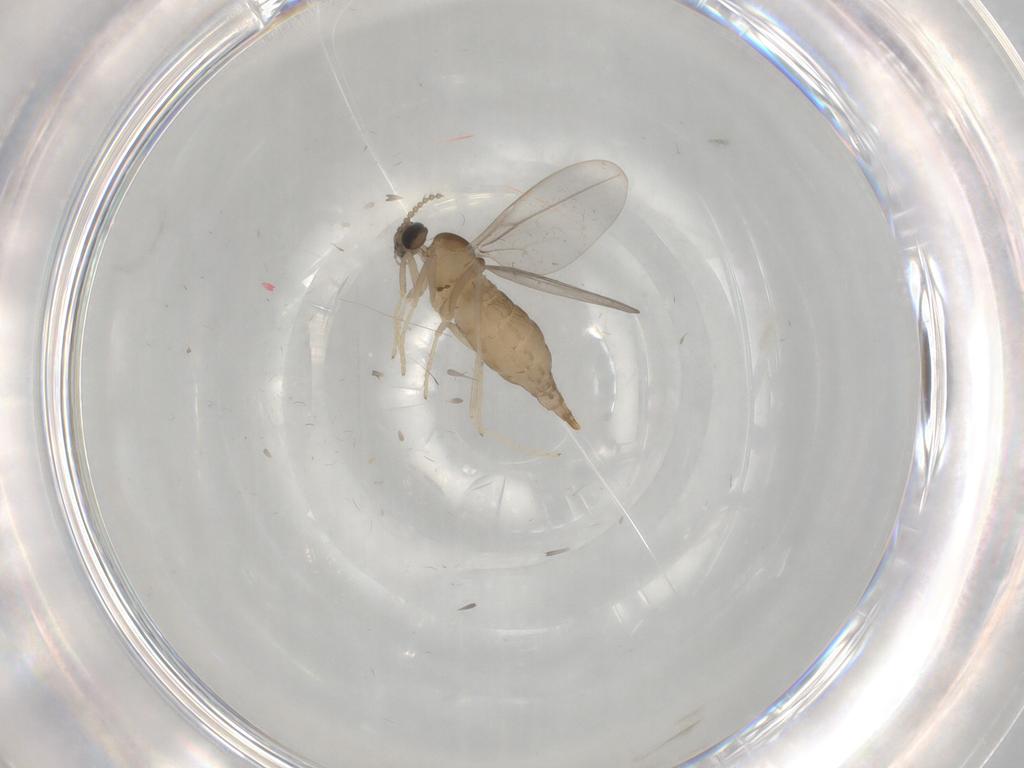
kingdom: Animalia
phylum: Arthropoda
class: Insecta
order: Diptera
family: Cecidomyiidae
